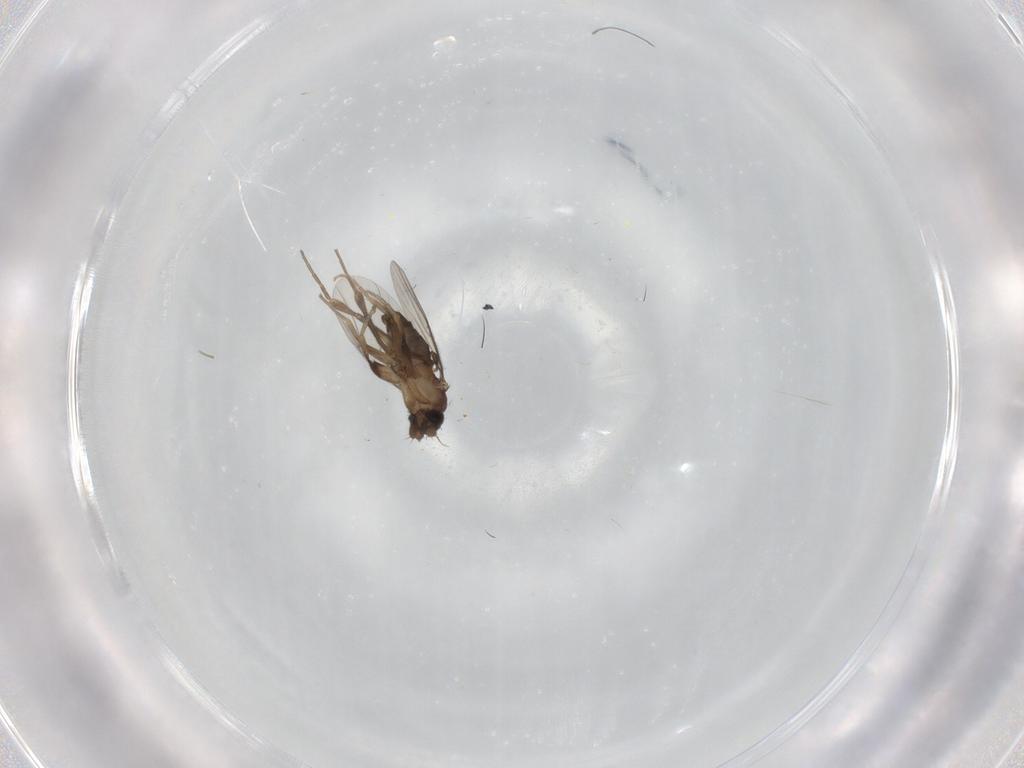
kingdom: Animalia
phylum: Arthropoda
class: Insecta
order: Diptera
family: Phoridae
